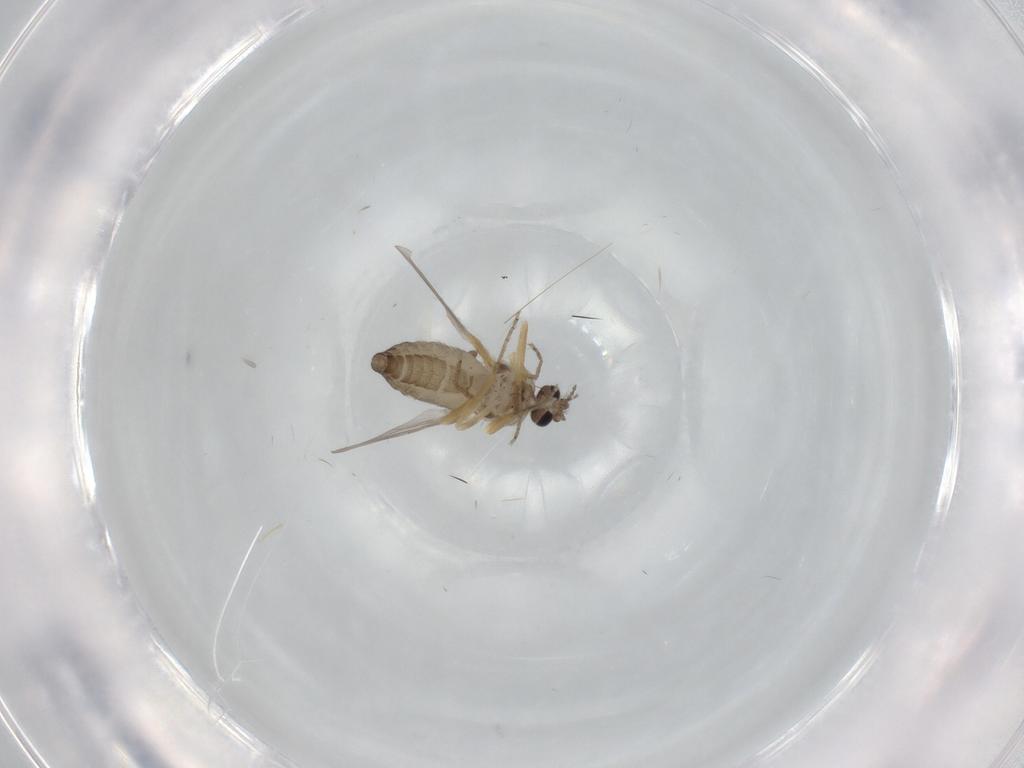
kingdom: Animalia
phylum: Arthropoda
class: Insecta
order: Diptera
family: Ceratopogonidae
